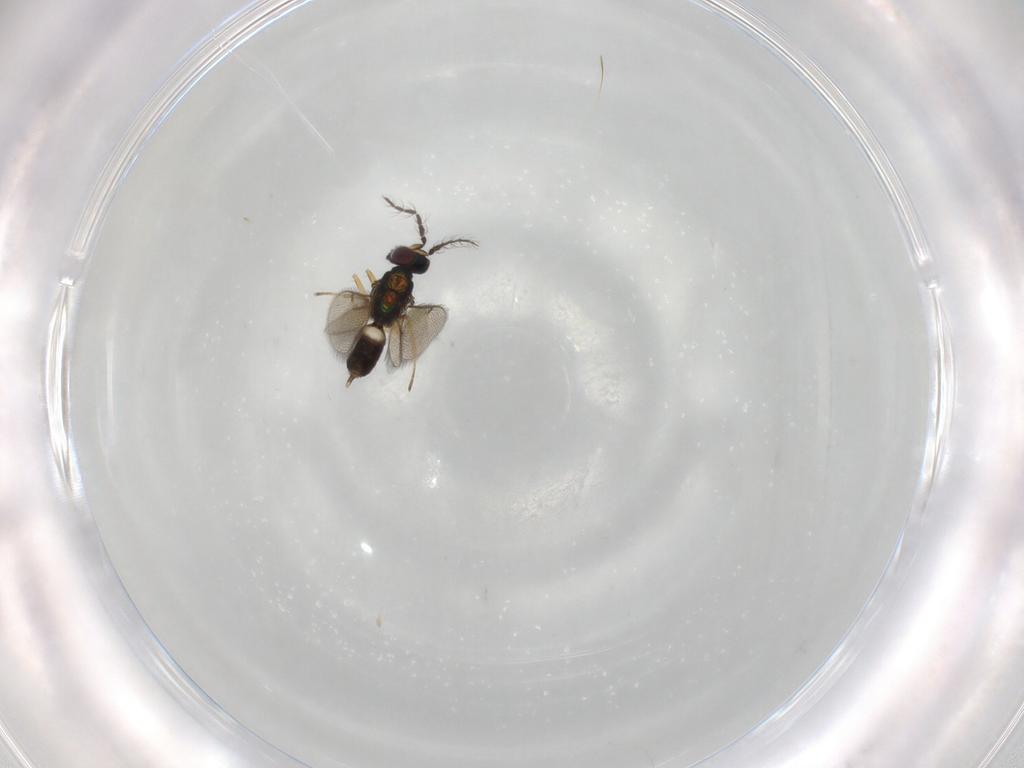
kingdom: Animalia
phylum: Arthropoda
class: Insecta
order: Hymenoptera
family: Eulophidae
